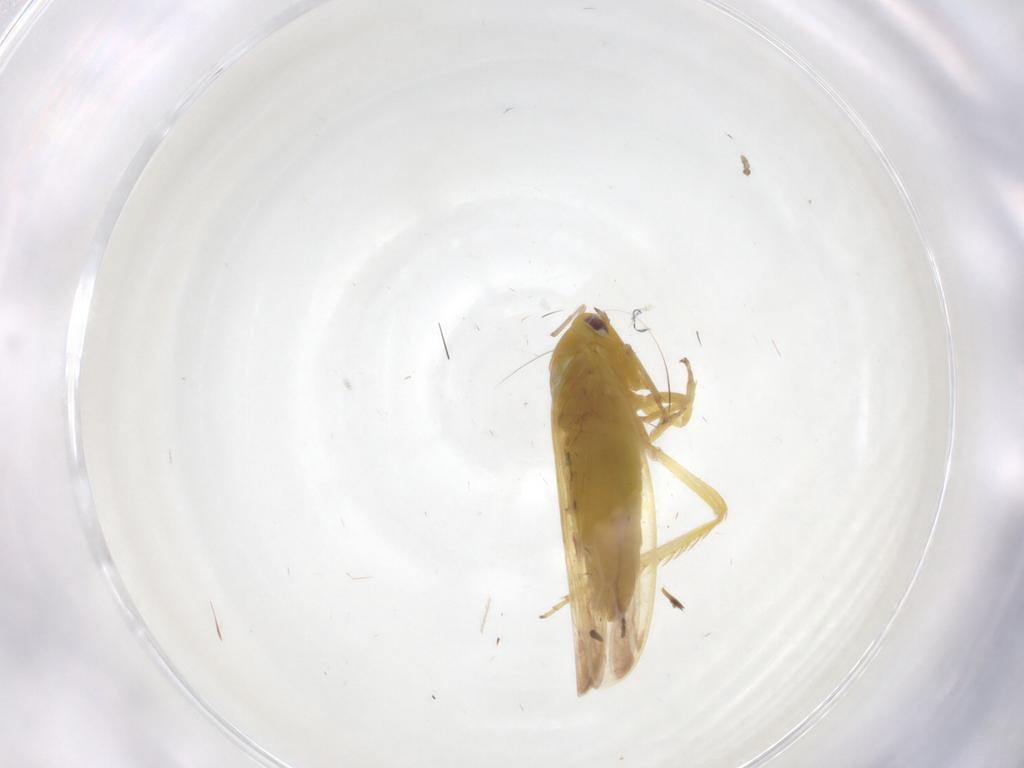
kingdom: Animalia
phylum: Arthropoda
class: Insecta
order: Hemiptera
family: Cicadellidae
